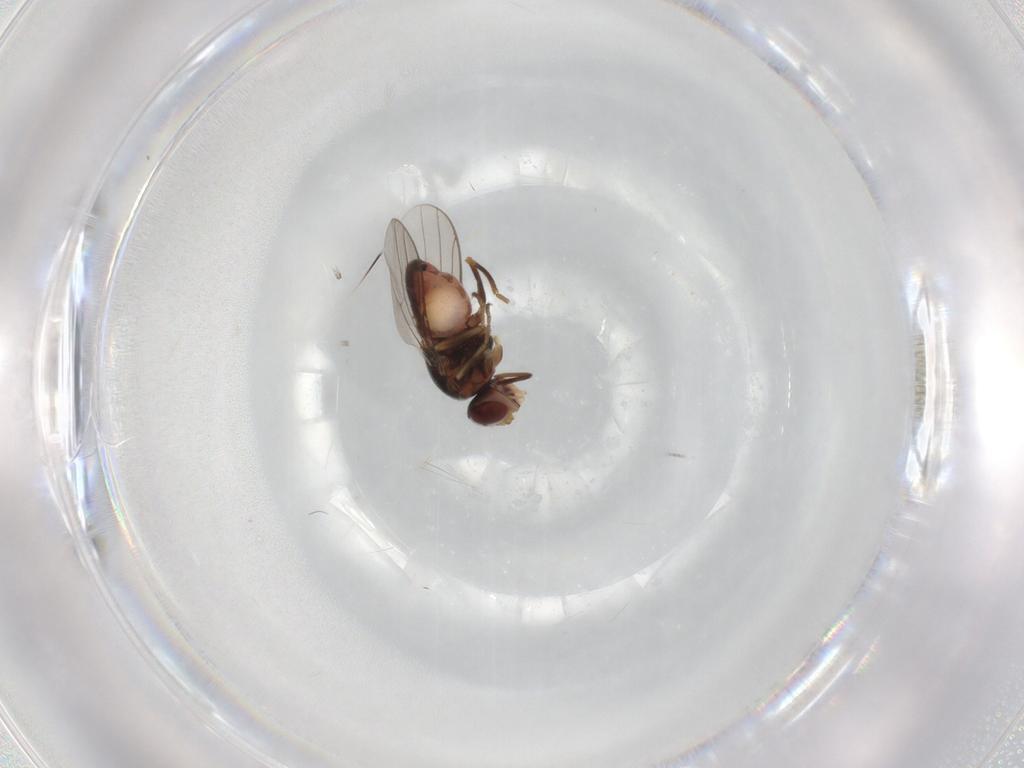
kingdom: Animalia
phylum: Arthropoda
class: Insecta
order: Diptera
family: Chloropidae
